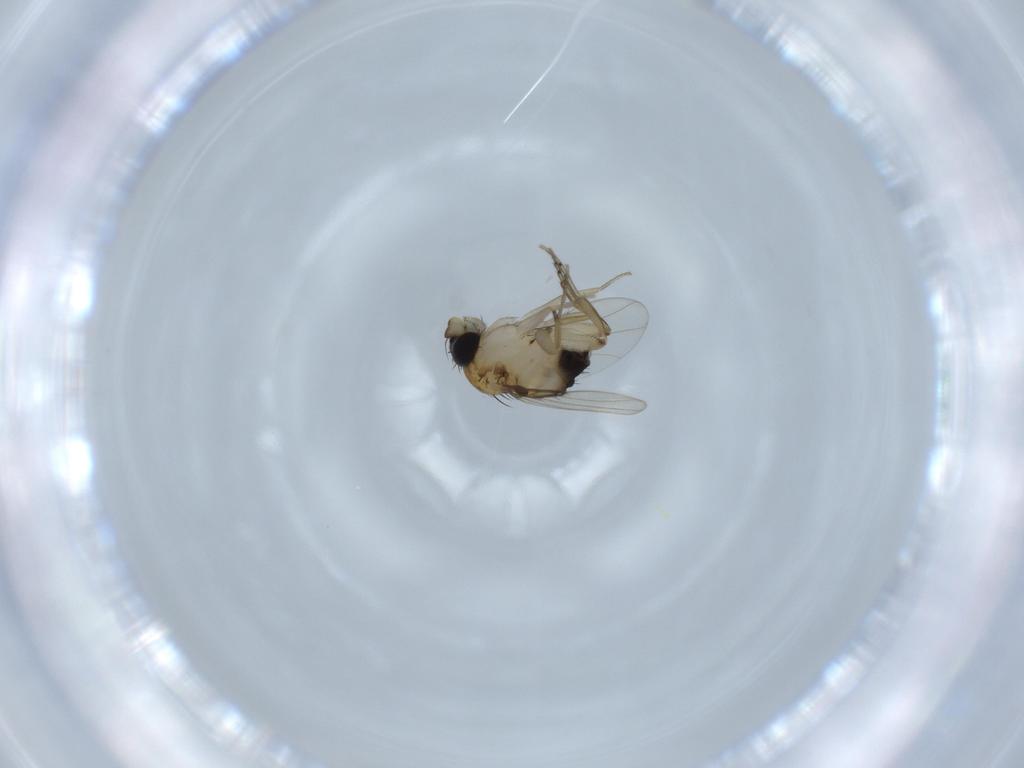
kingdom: Animalia
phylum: Arthropoda
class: Insecta
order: Diptera
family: Phoridae
